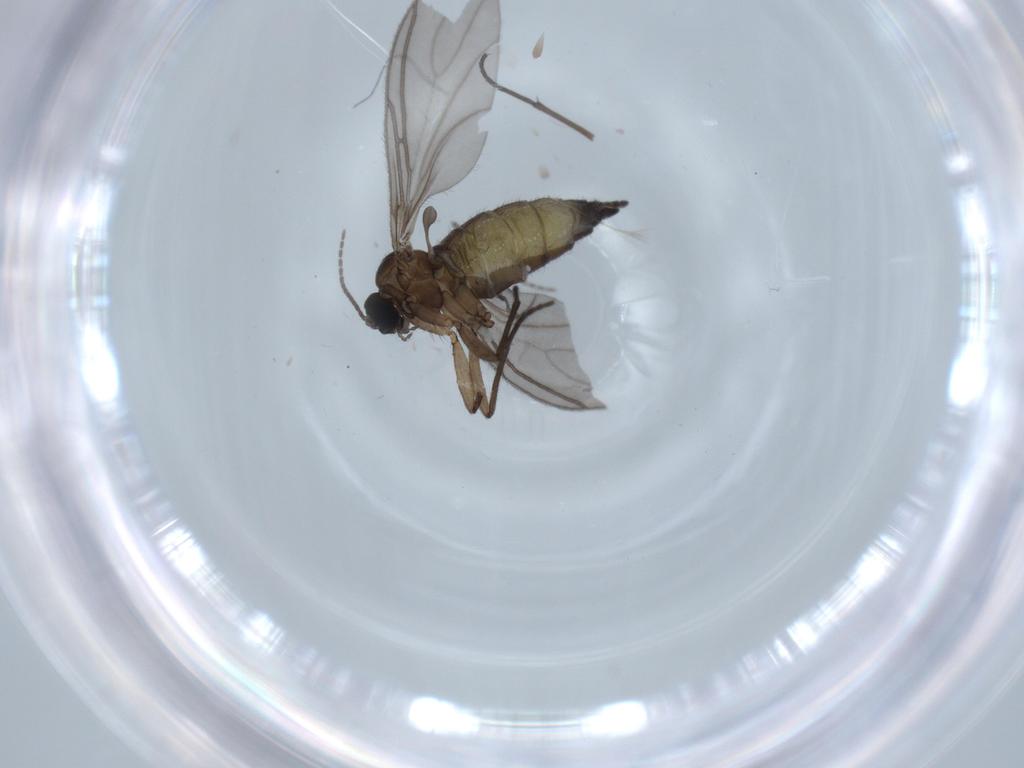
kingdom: Animalia
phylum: Arthropoda
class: Insecta
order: Diptera
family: Sciaridae
